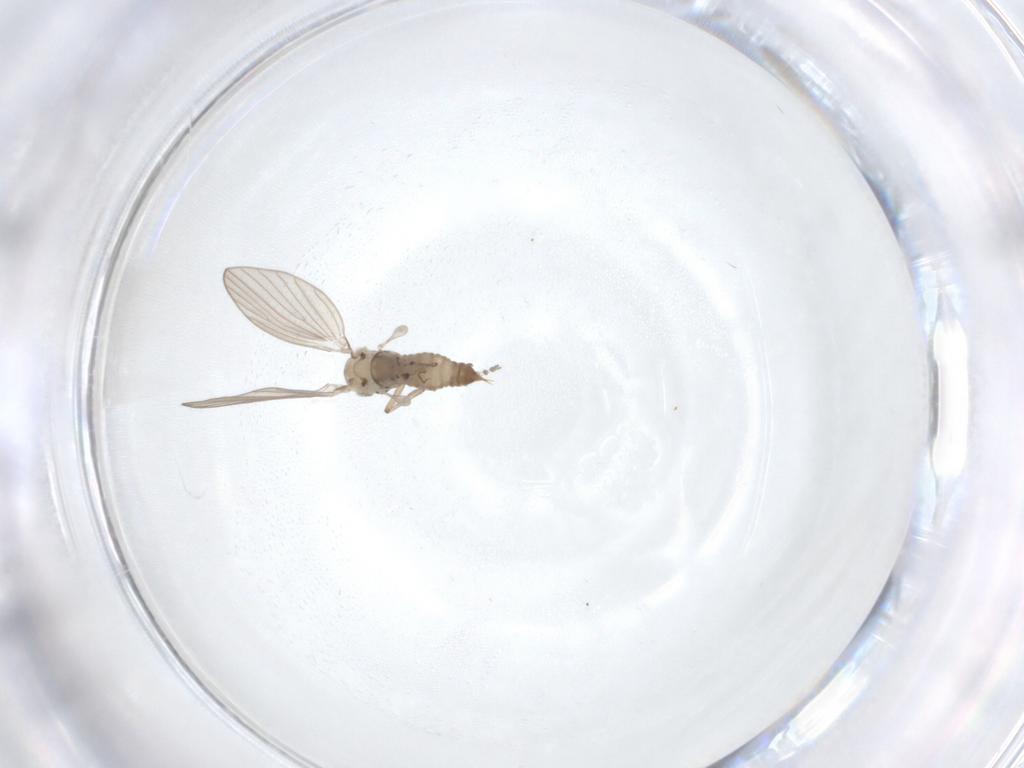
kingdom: Animalia
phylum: Arthropoda
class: Insecta
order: Diptera
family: Psychodidae
